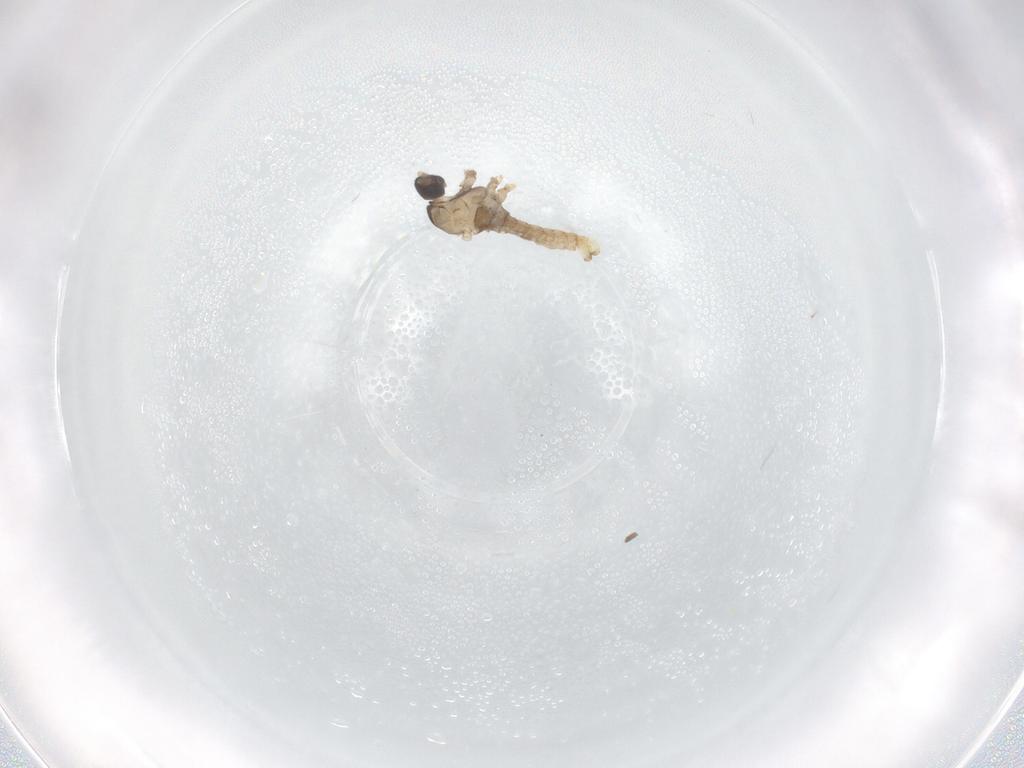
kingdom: Animalia
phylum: Arthropoda
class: Insecta
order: Diptera
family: Cecidomyiidae
